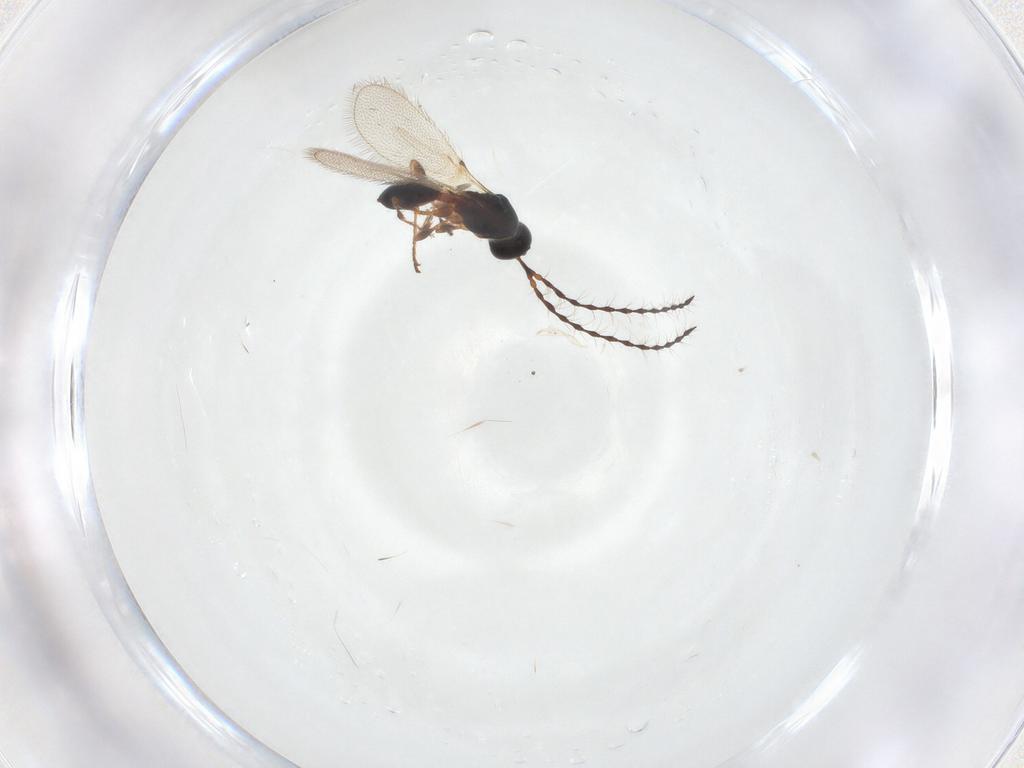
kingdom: Animalia
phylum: Arthropoda
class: Insecta
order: Hymenoptera
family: Diapriidae
